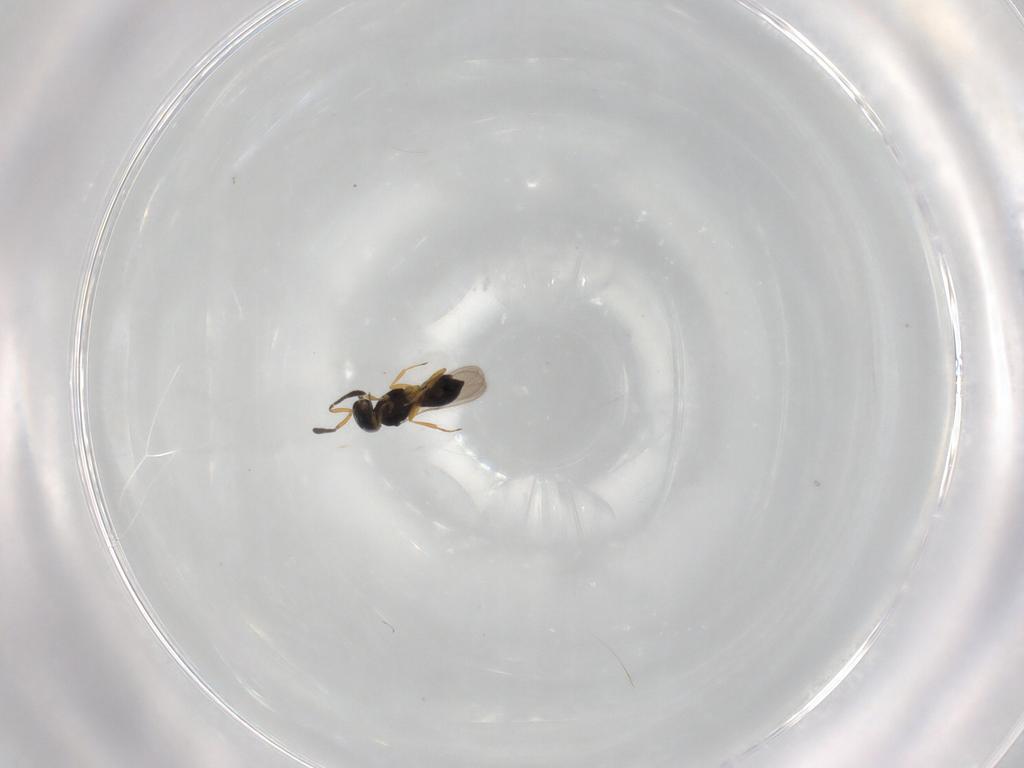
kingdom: Animalia
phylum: Arthropoda
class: Insecta
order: Hymenoptera
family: Scelionidae
